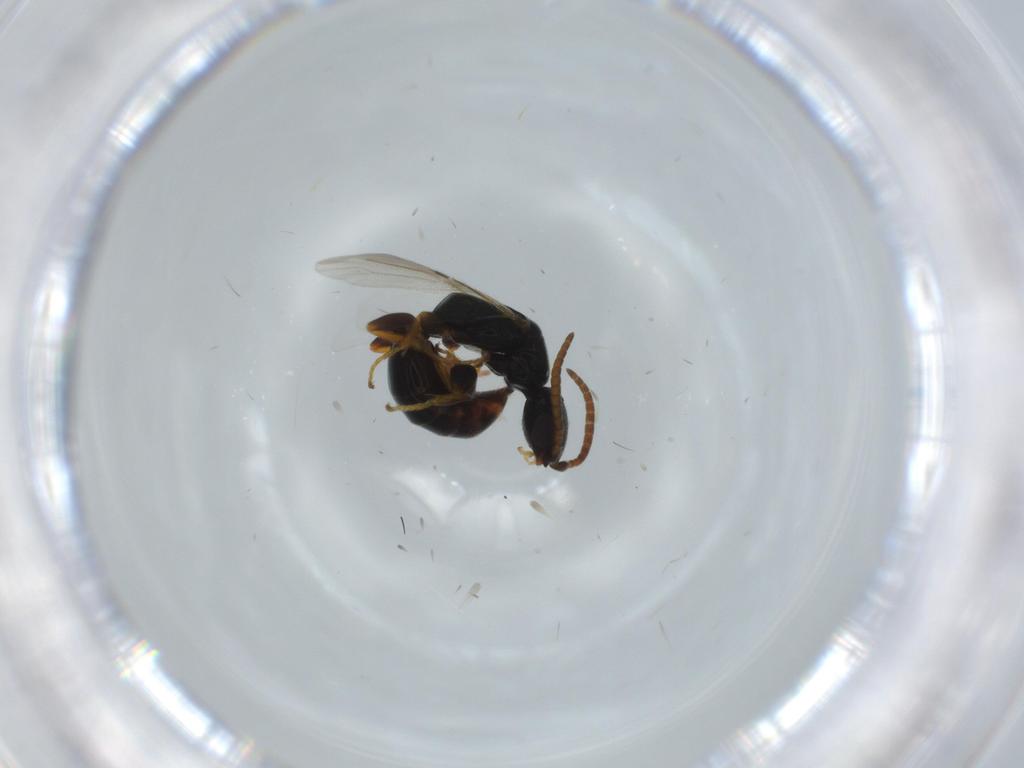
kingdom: Animalia
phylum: Arthropoda
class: Insecta
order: Hymenoptera
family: Bethylidae
